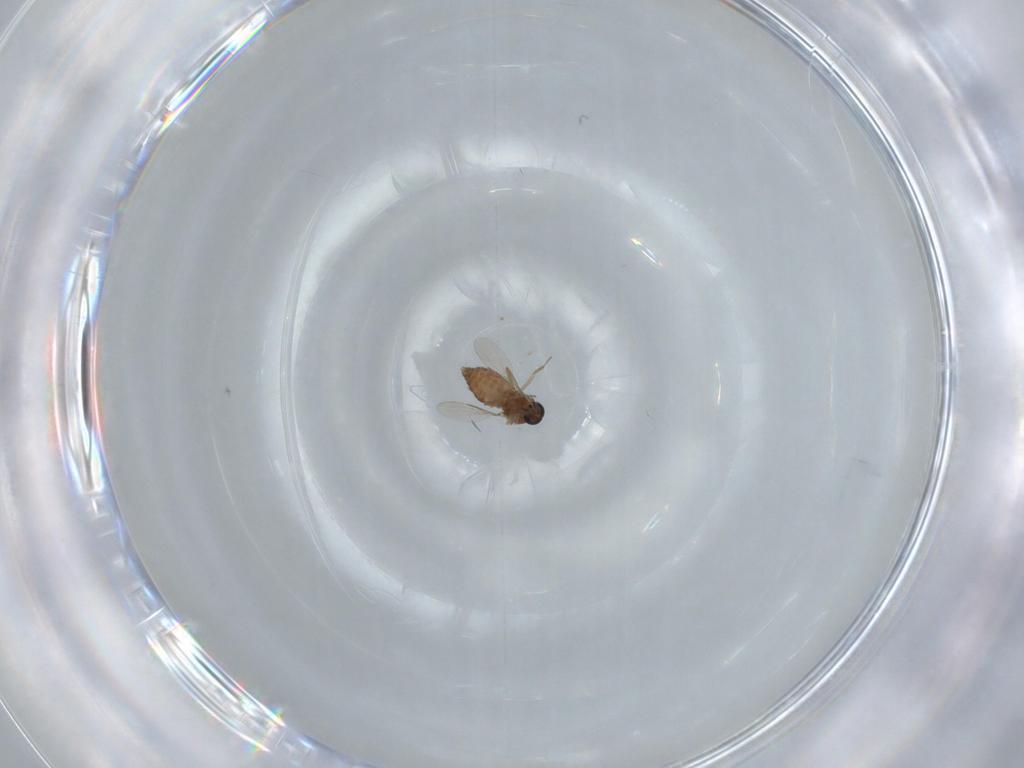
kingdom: Animalia
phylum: Arthropoda
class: Insecta
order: Diptera
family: Ceratopogonidae
